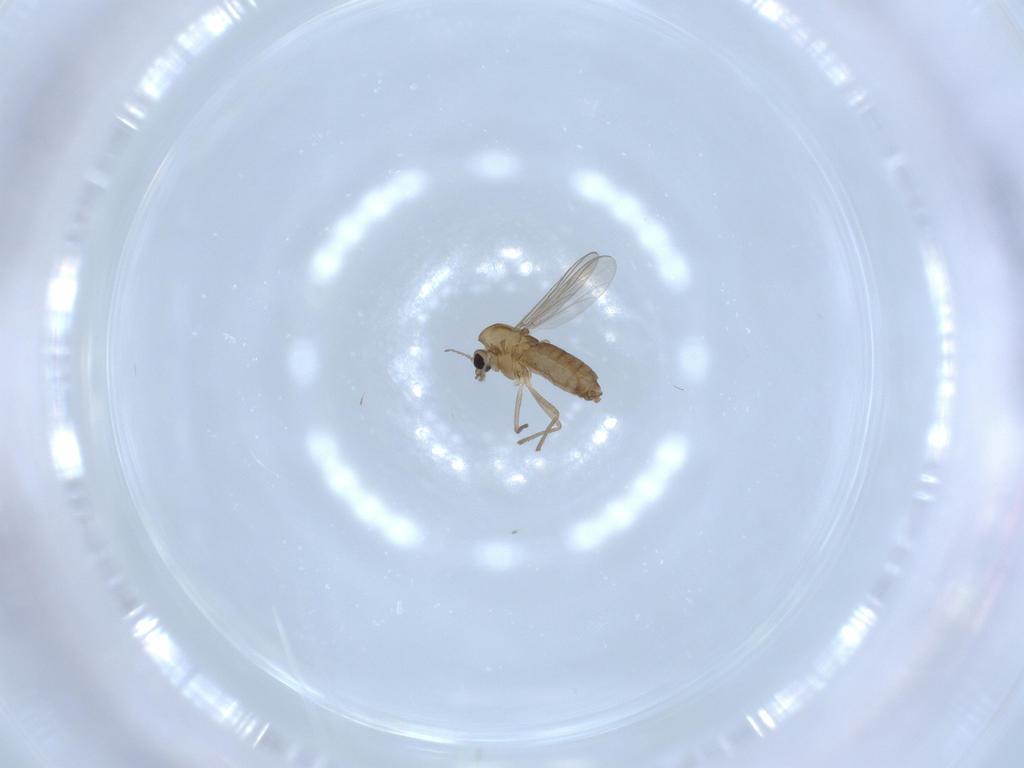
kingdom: Animalia
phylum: Arthropoda
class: Insecta
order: Diptera
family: Chironomidae
